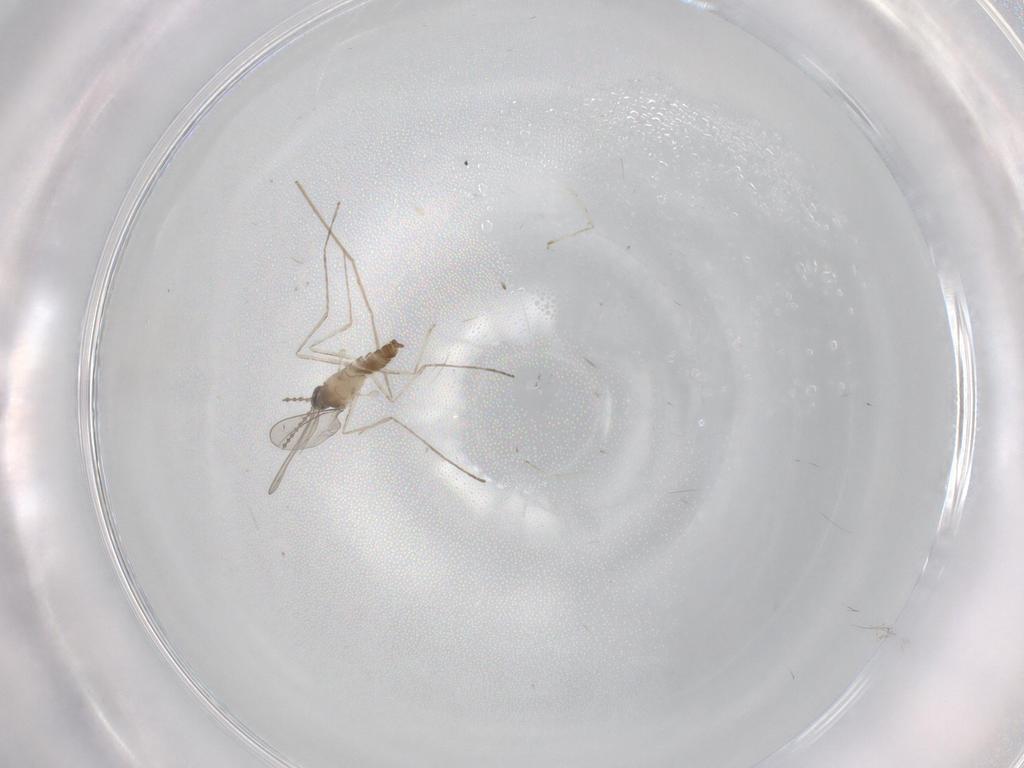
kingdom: Animalia
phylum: Arthropoda
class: Insecta
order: Diptera
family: Cecidomyiidae
